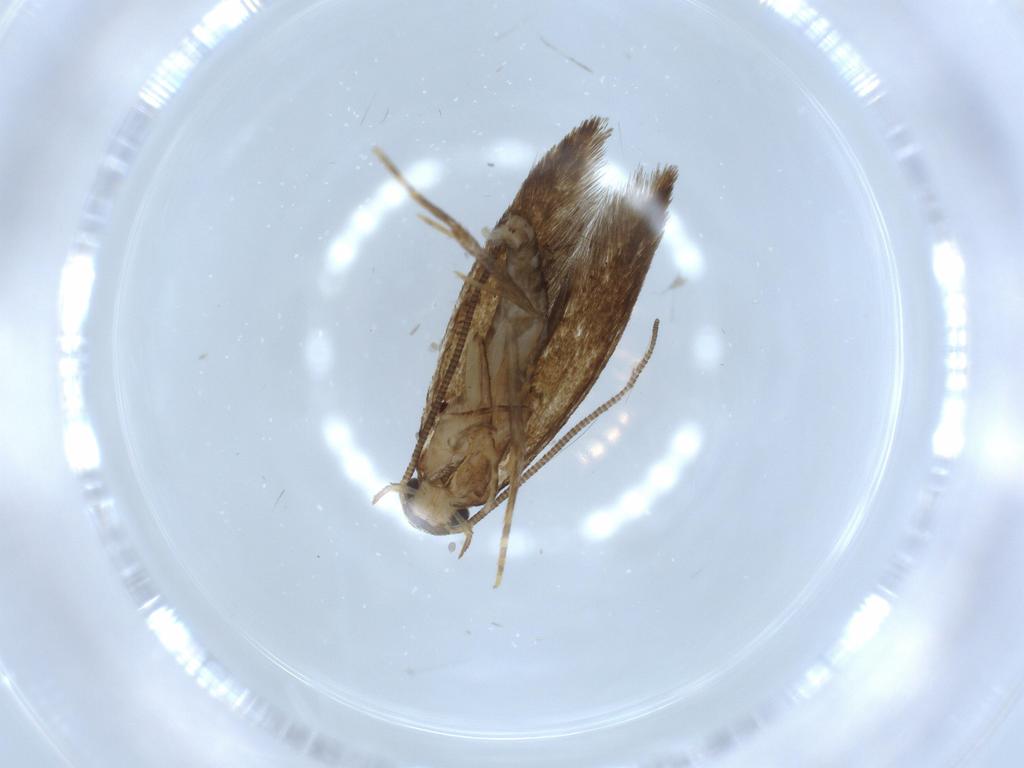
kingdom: Animalia
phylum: Arthropoda
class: Insecta
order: Lepidoptera
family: Tineidae
